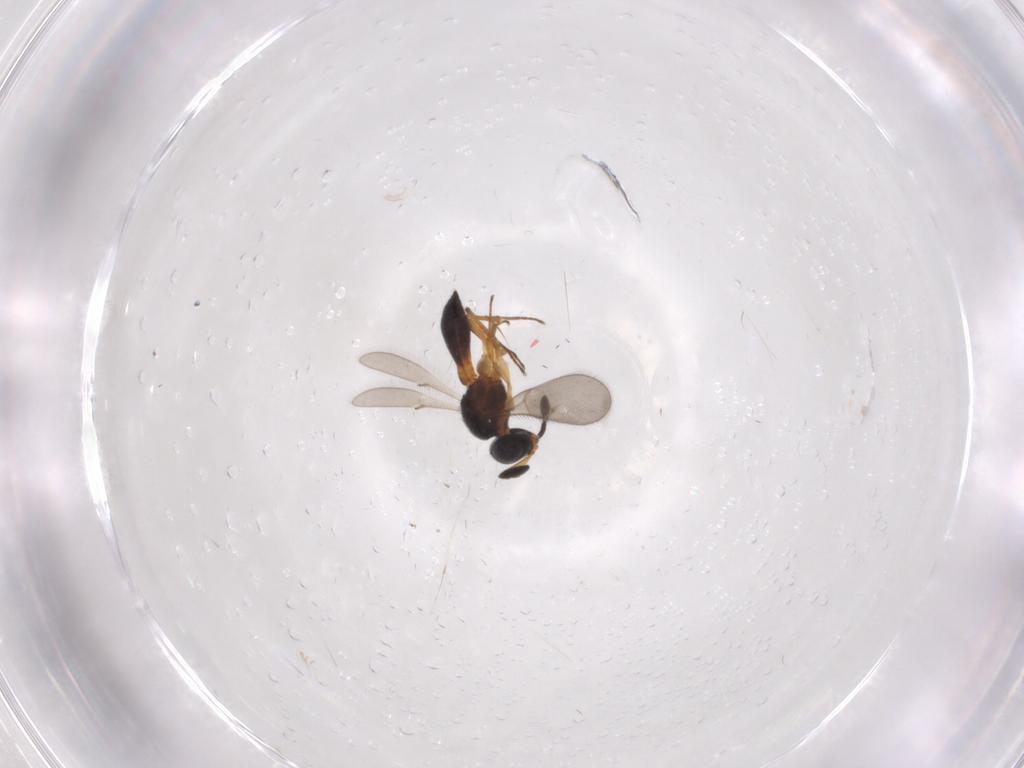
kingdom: Animalia
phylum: Arthropoda
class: Insecta
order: Hymenoptera
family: Scelionidae
